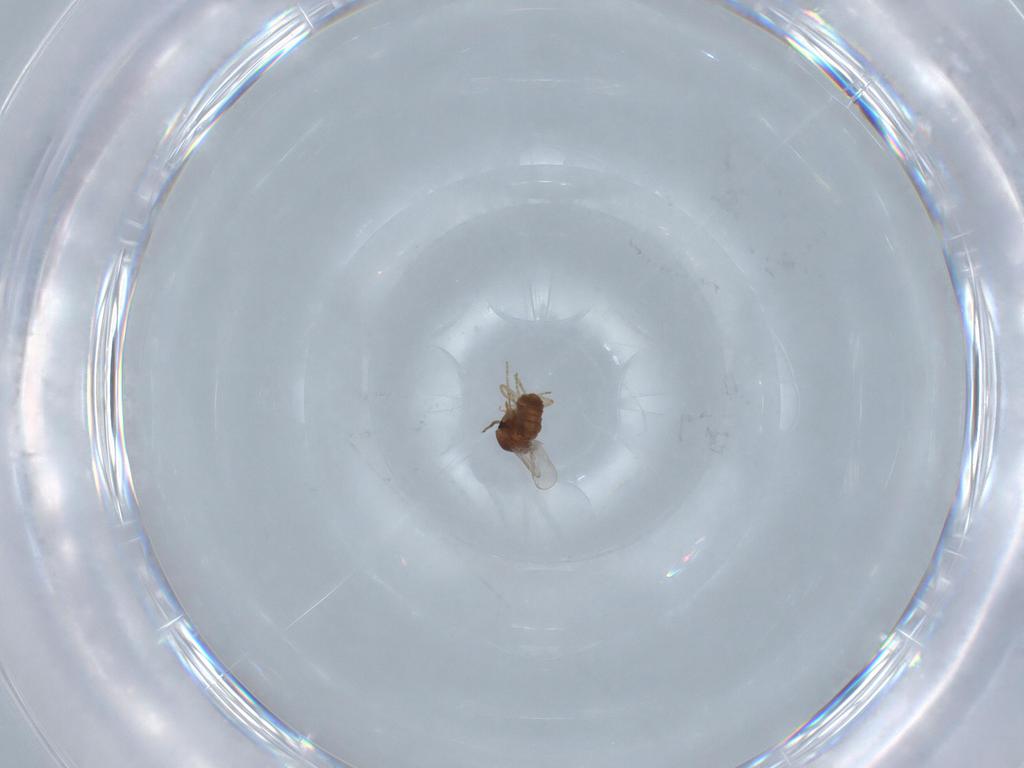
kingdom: Animalia
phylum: Arthropoda
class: Insecta
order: Diptera
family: Ceratopogonidae
